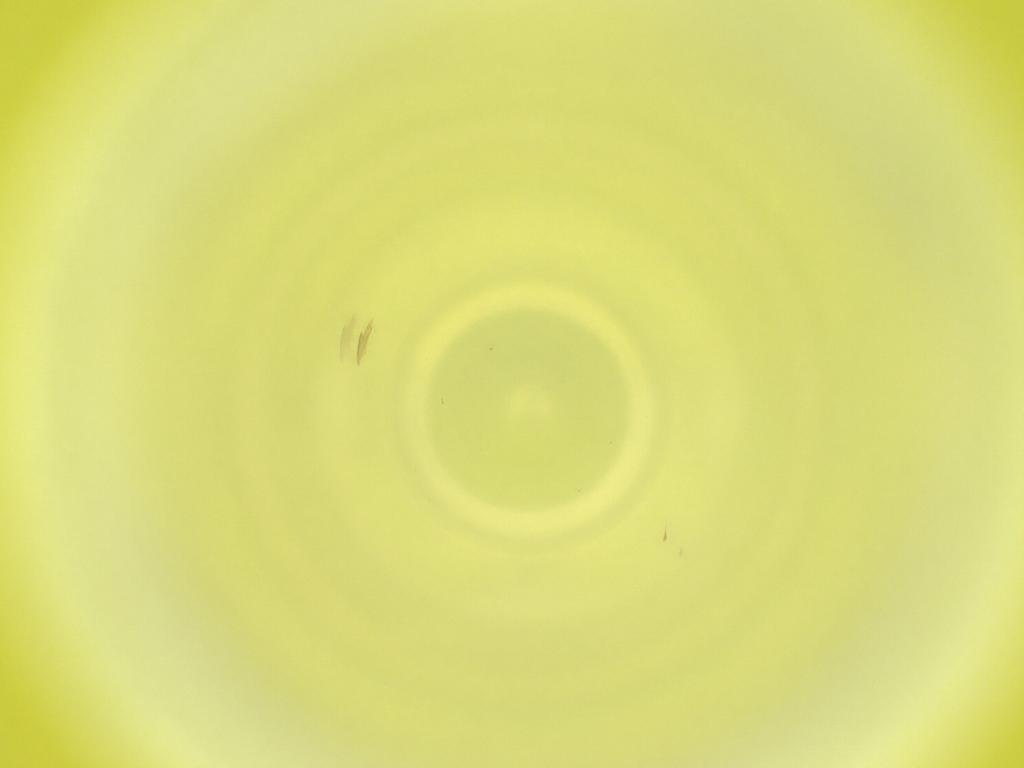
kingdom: Animalia
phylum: Arthropoda
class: Insecta
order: Diptera
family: Cecidomyiidae
